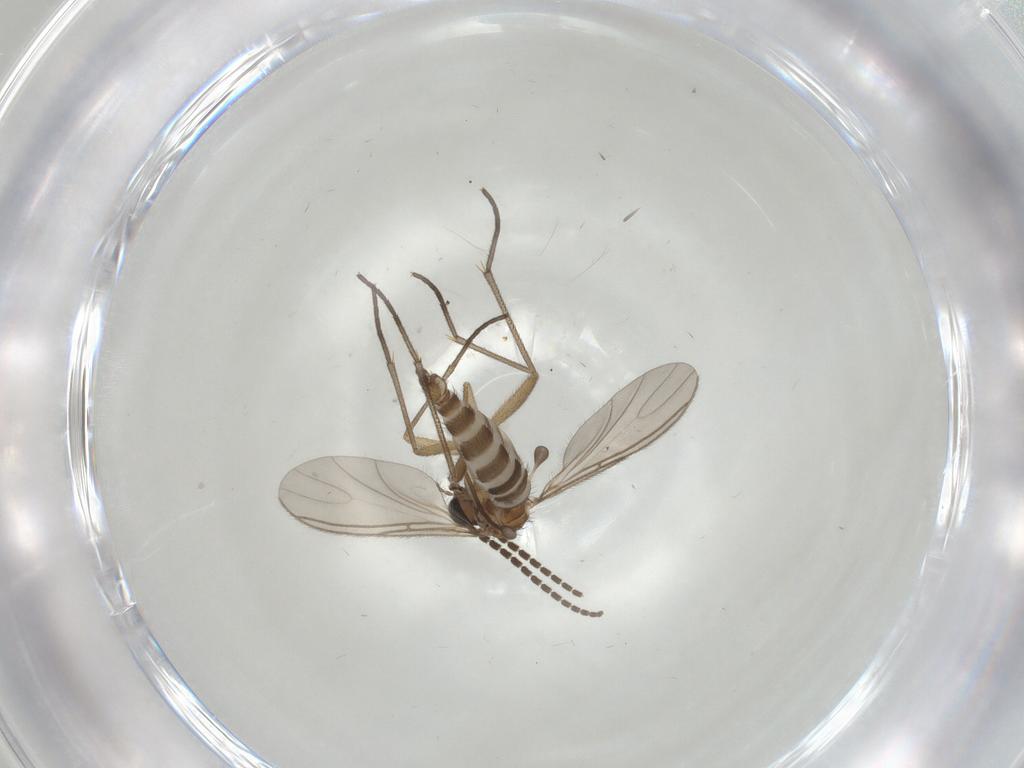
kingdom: Animalia
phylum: Arthropoda
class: Insecta
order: Diptera
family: Sciaridae
